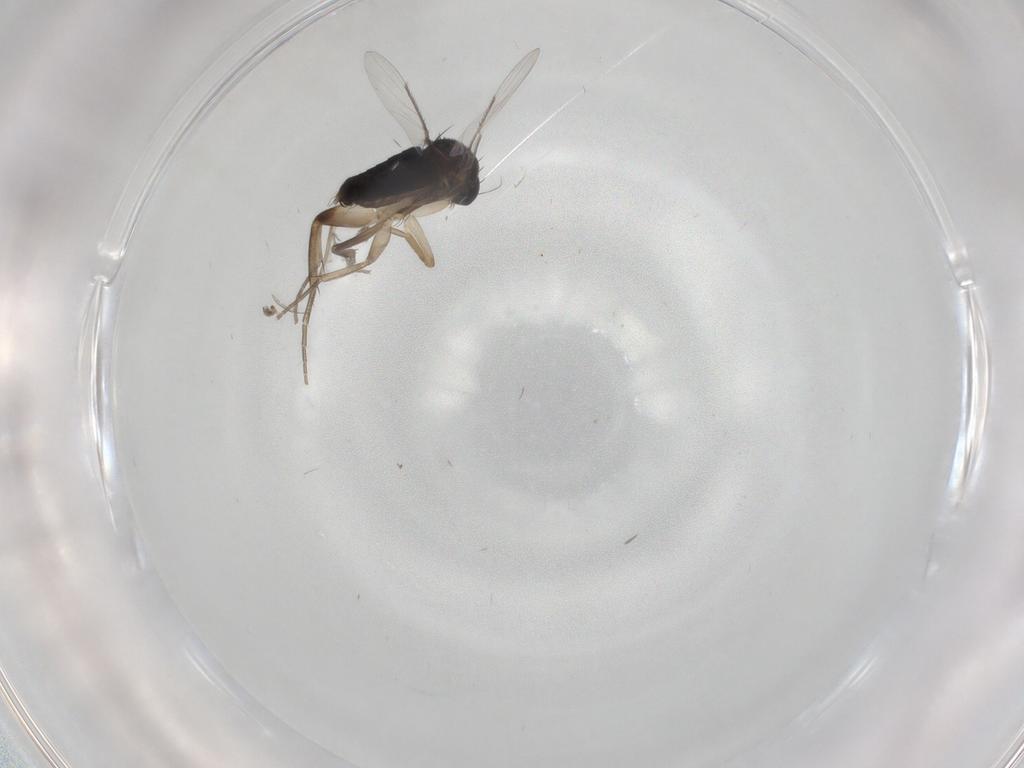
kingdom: Animalia
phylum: Arthropoda
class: Insecta
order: Diptera
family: Phoridae
